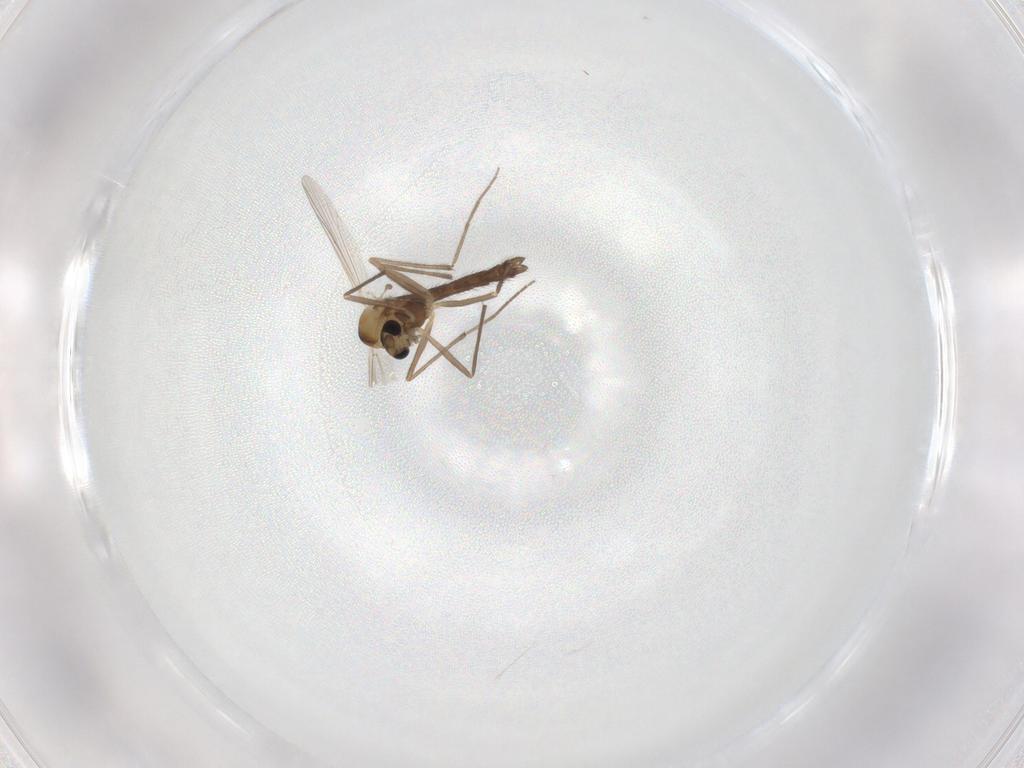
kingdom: Animalia
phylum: Arthropoda
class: Insecta
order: Diptera
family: Chironomidae
